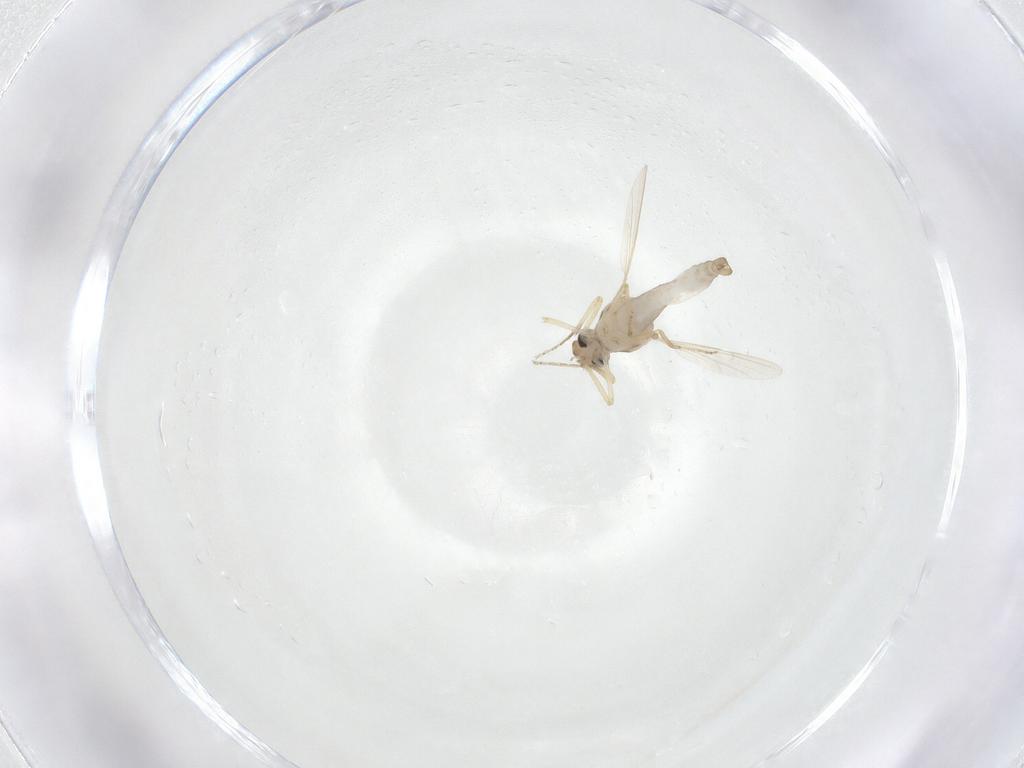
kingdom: Animalia
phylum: Arthropoda
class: Insecta
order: Diptera
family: Ceratopogonidae
